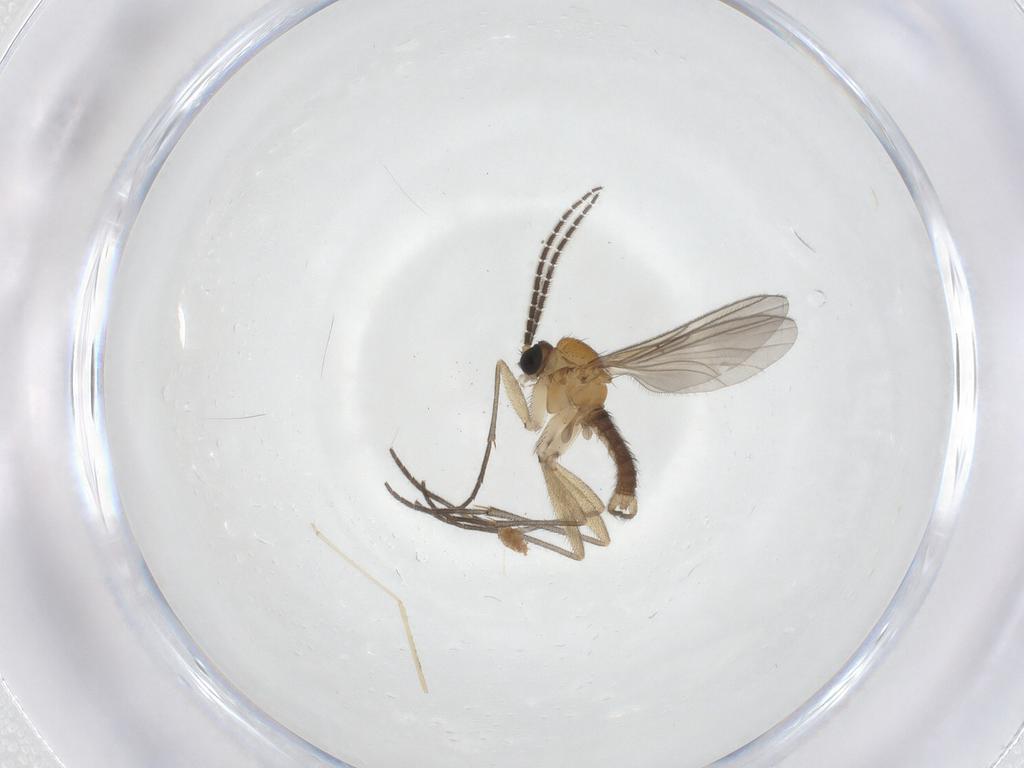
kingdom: Animalia
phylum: Arthropoda
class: Insecta
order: Diptera
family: Sciaridae
